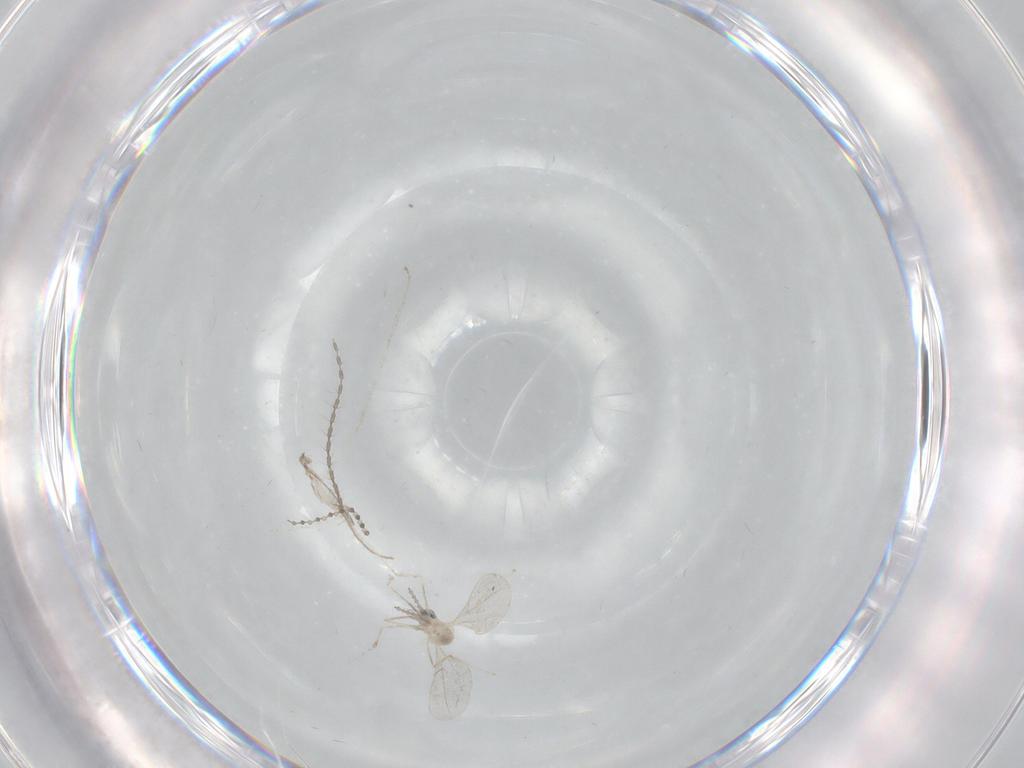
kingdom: Animalia
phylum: Arthropoda
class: Insecta
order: Diptera
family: Cecidomyiidae
